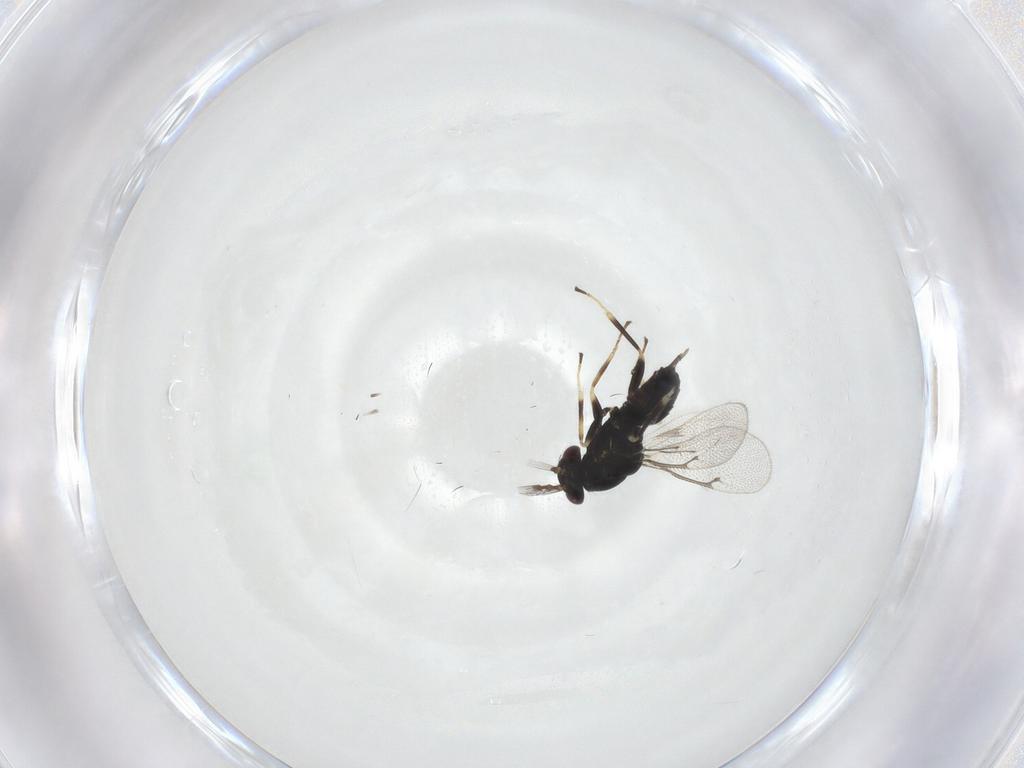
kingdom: Animalia
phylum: Arthropoda
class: Insecta
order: Hymenoptera
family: Eulophidae
